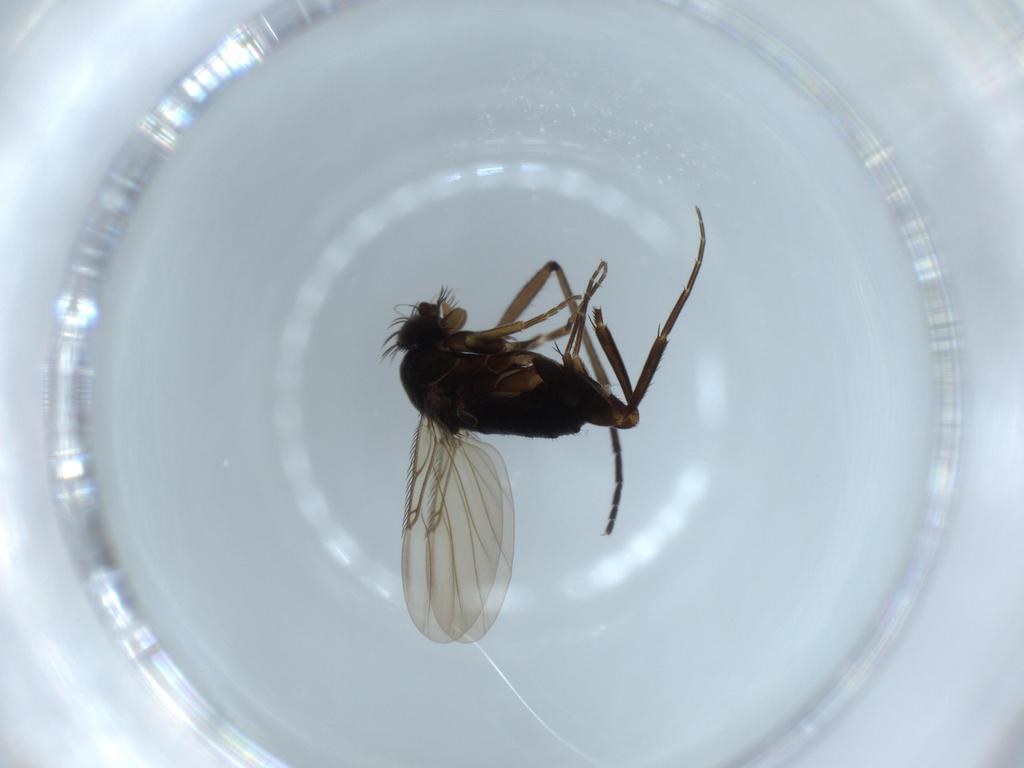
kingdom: Animalia
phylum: Arthropoda
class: Insecta
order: Diptera
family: Phoridae
